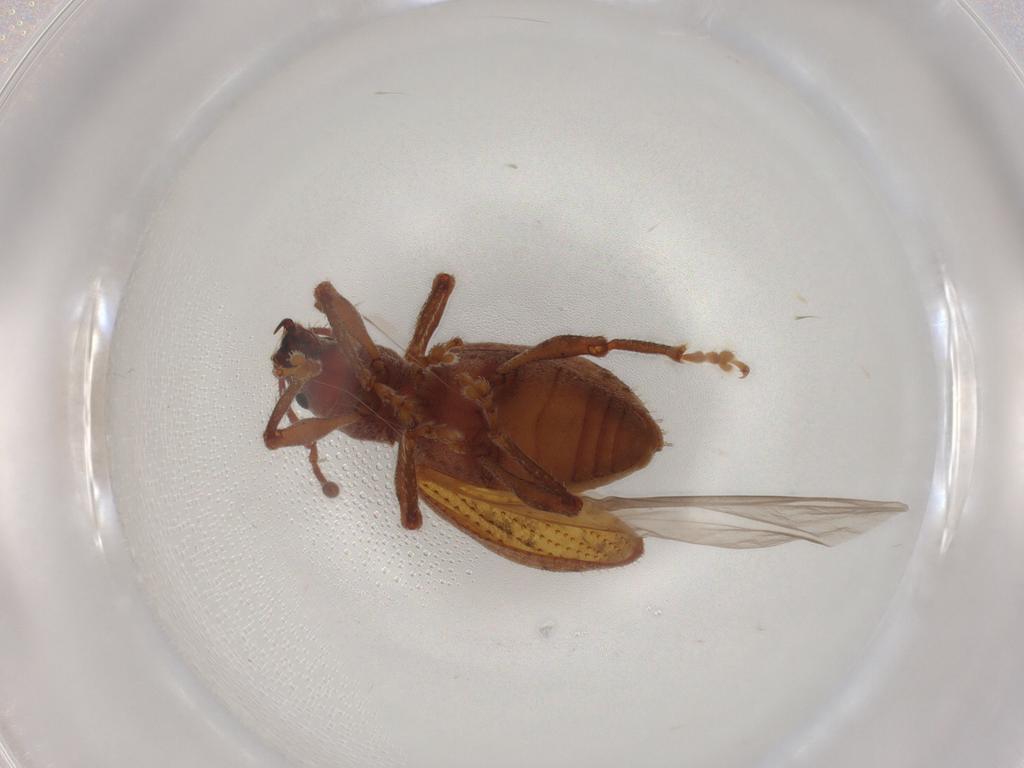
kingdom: Animalia
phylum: Arthropoda
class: Insecta
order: Coleoptera
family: Curculionidae
